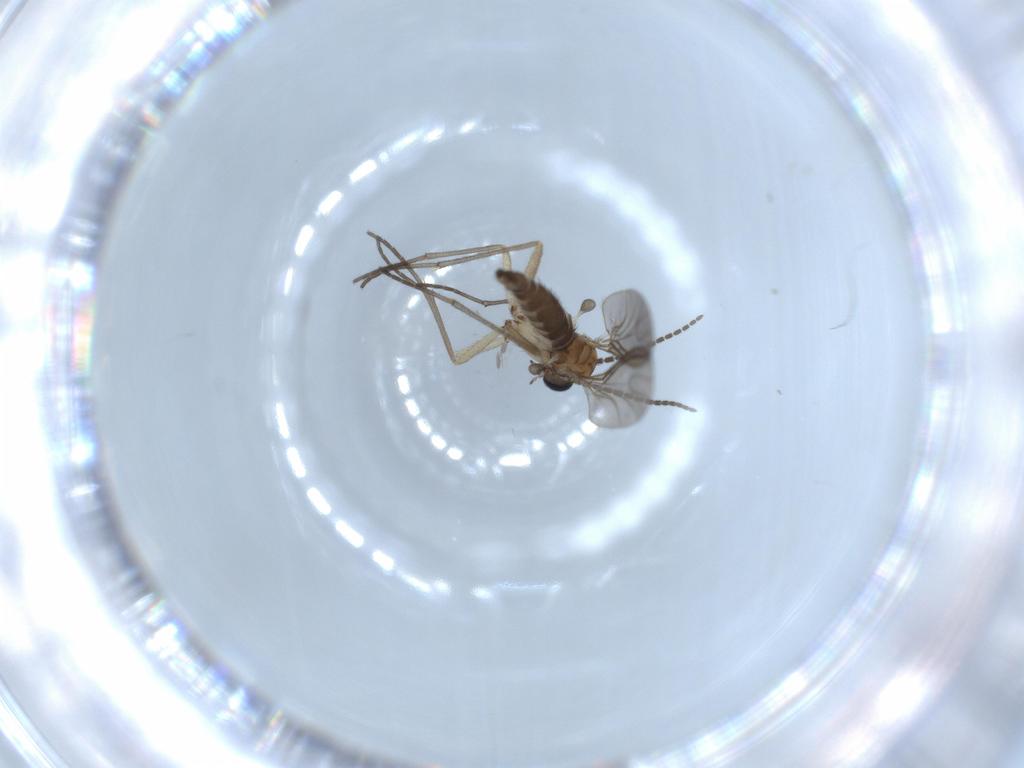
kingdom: Animalia
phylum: Arthropoda
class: Insecta
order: Diptera
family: Sciaridae
